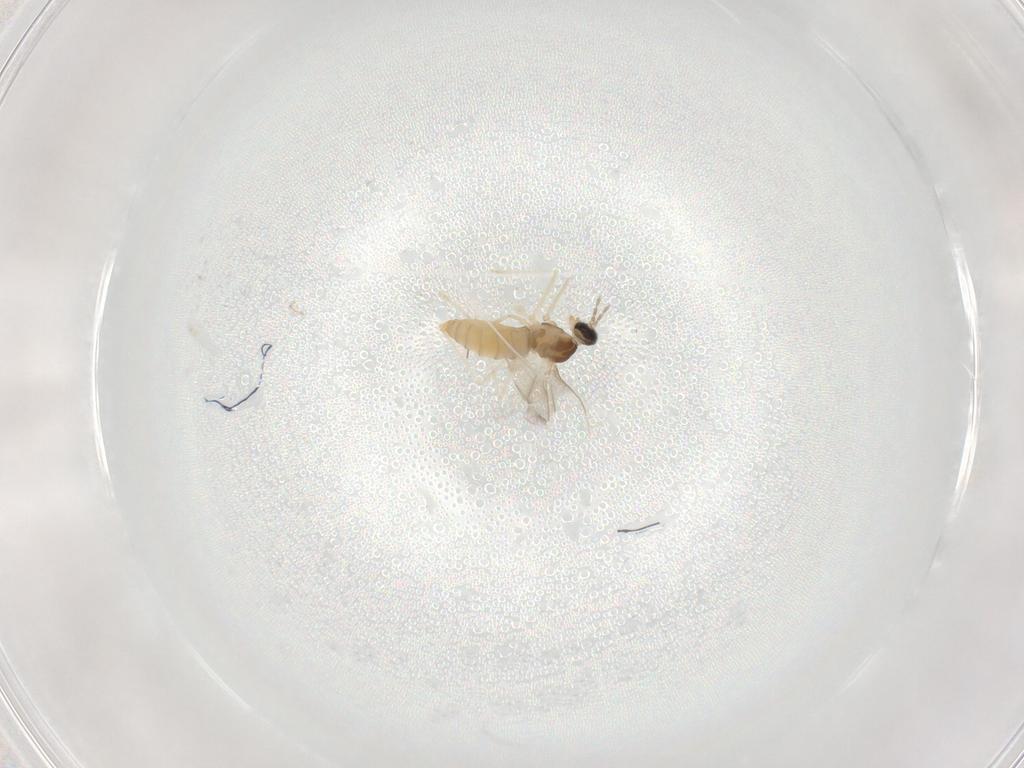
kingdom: Animalia
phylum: Arthropoda
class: Insecta
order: Diptera
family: Cecidomyiidae
